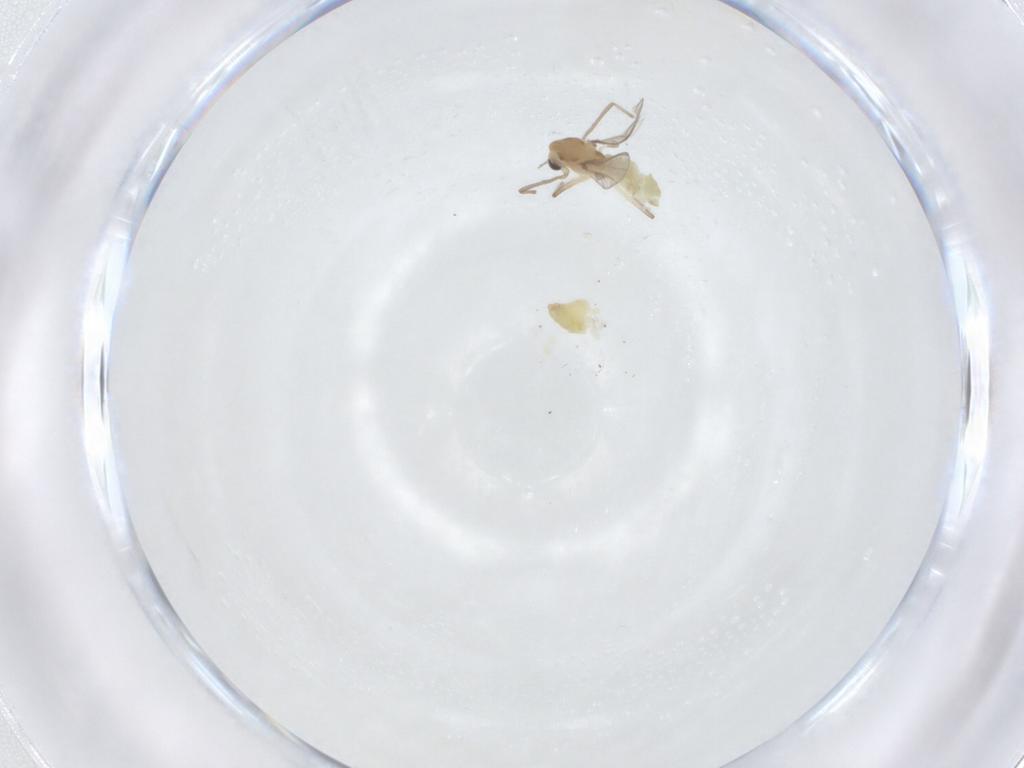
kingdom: Animalia
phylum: Arthropoda
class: Insecta
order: Diptera
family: Chironomidae
